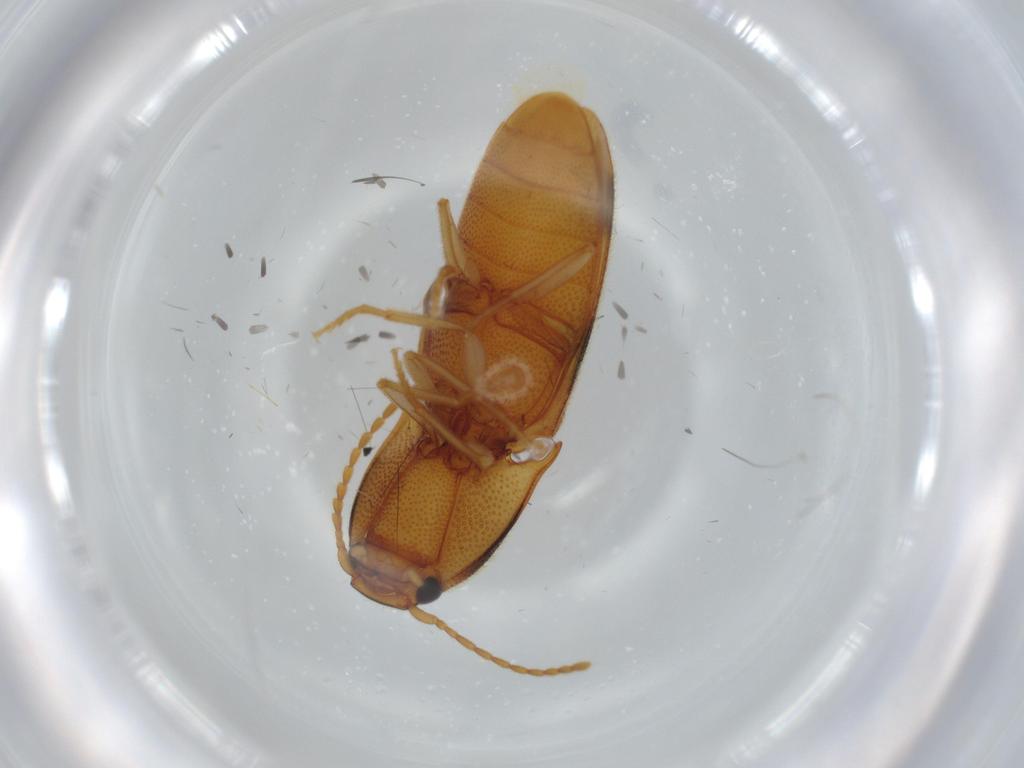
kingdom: Animalia
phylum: Arthropoda
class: Insecta
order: Coleoptera
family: Elateridae
